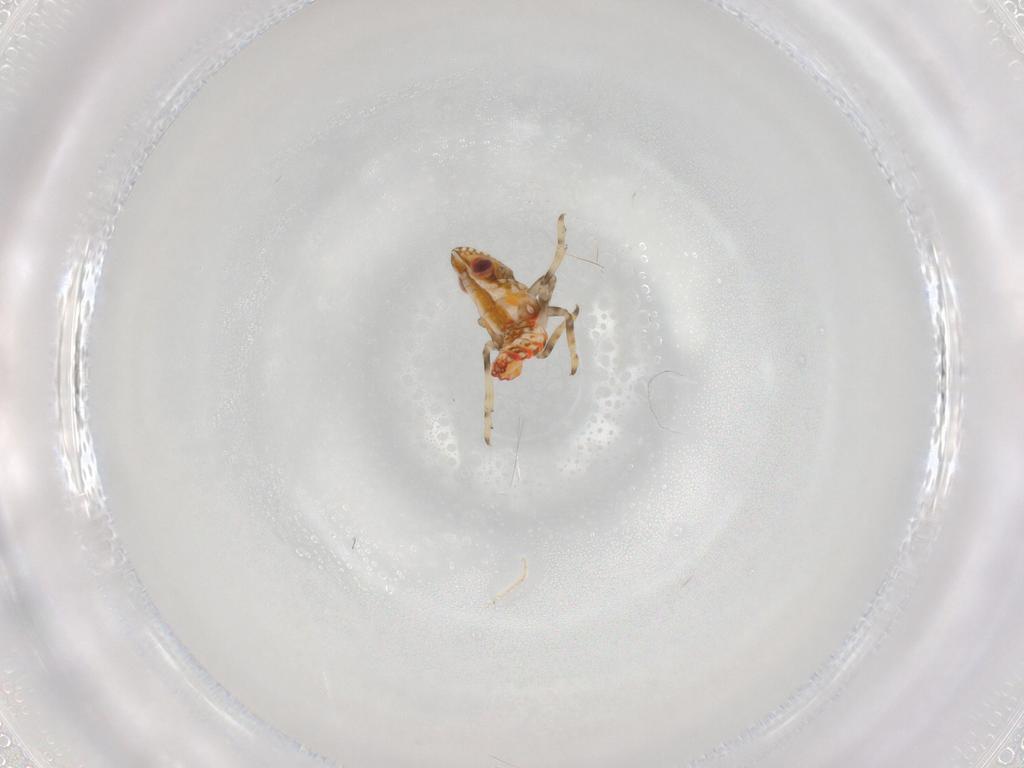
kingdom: Animalia
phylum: Arthropoda
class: Insecta
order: Hemiptera
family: Tropiduchidae
